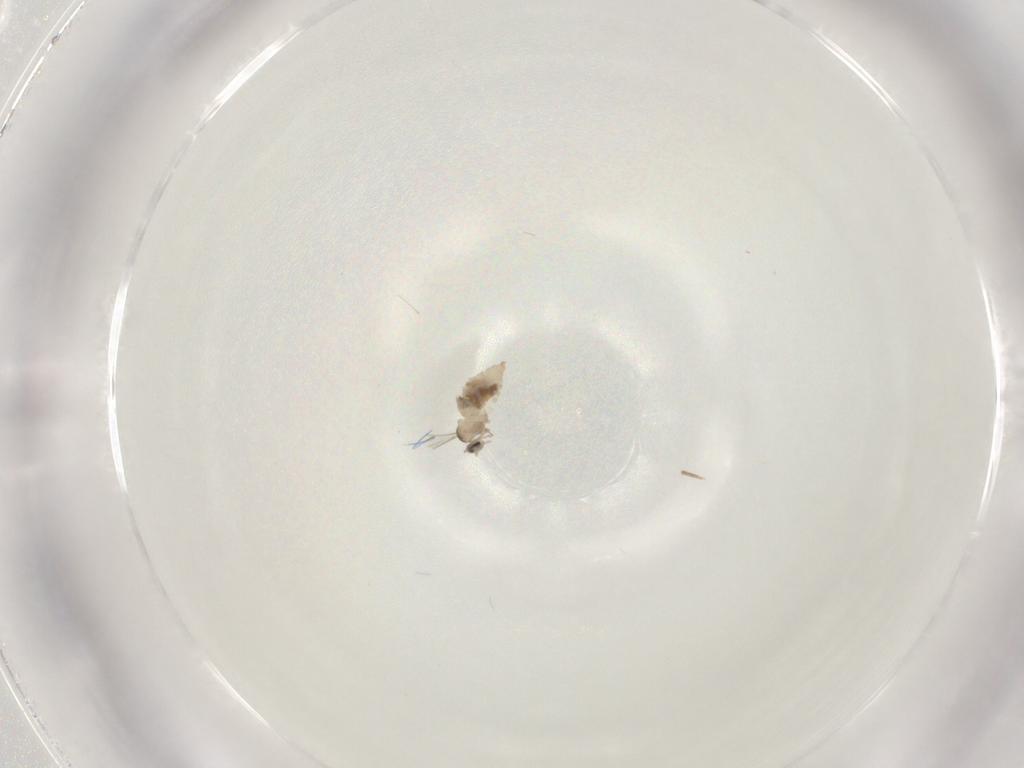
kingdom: Animalia
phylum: Arthropoda
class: Insecta
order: Diptera
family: Cecidomyiidae
